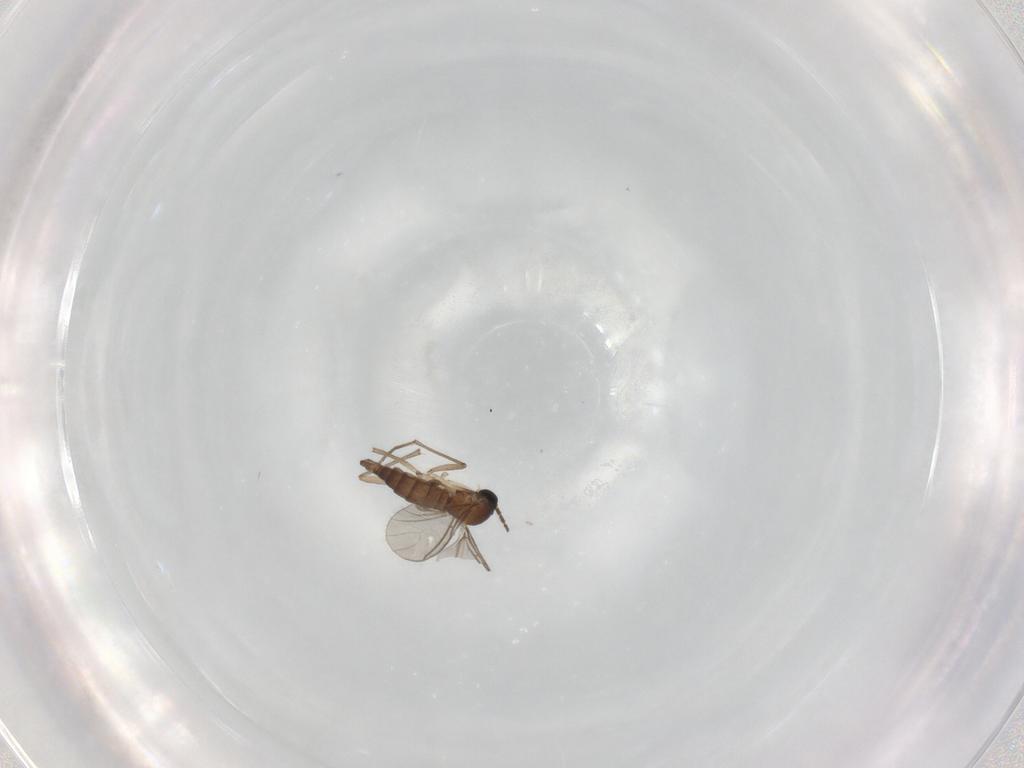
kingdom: Animalia
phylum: Arthropoda
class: Insecta
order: Diptera
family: Sciaridae
